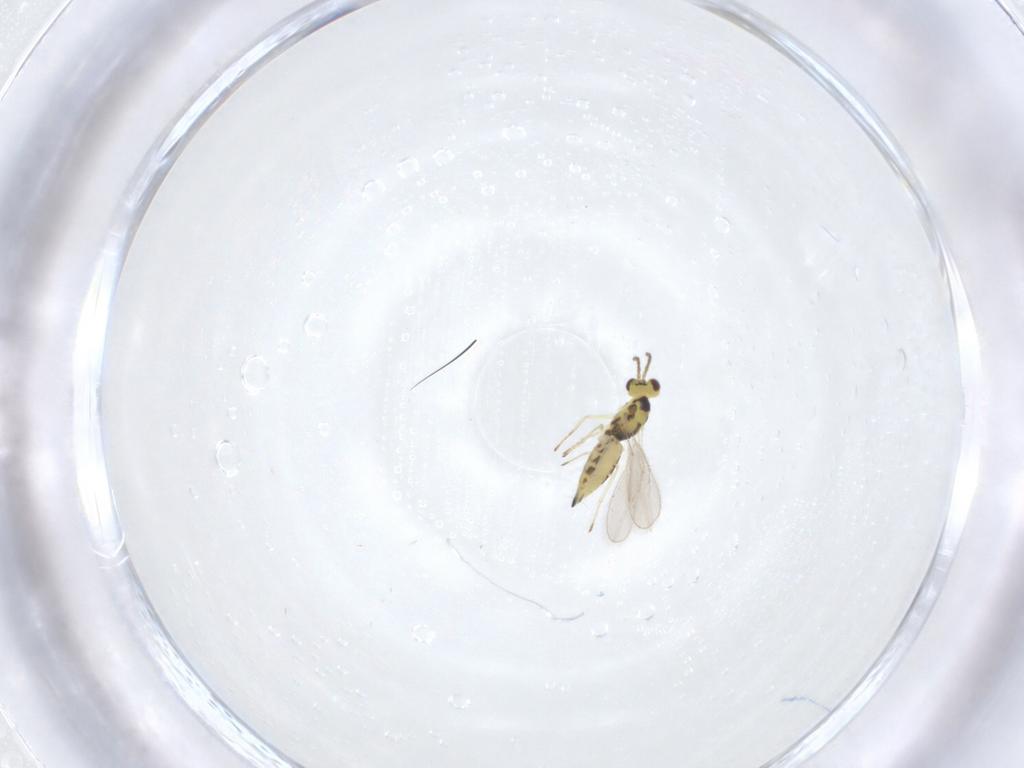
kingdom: Animalia
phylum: Arthropoda
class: Insecta
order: Hymenoptera
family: Eulophidae
